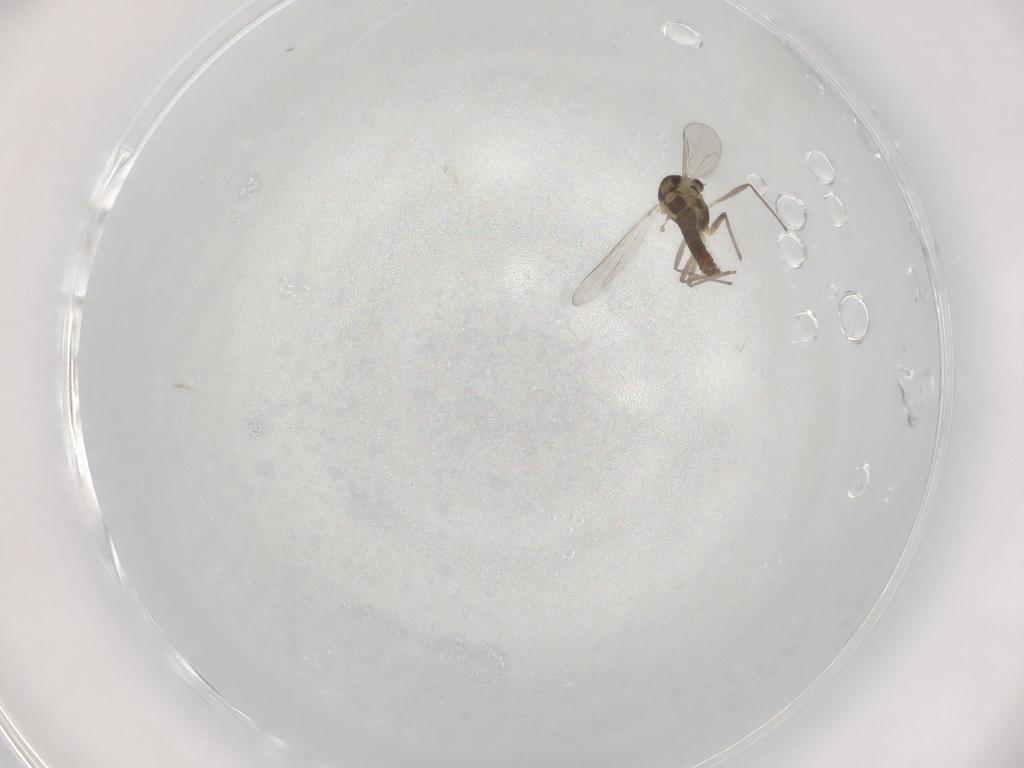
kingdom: Animalia
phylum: Arthropoda
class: Insecta
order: Diptera
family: Chironomidae
